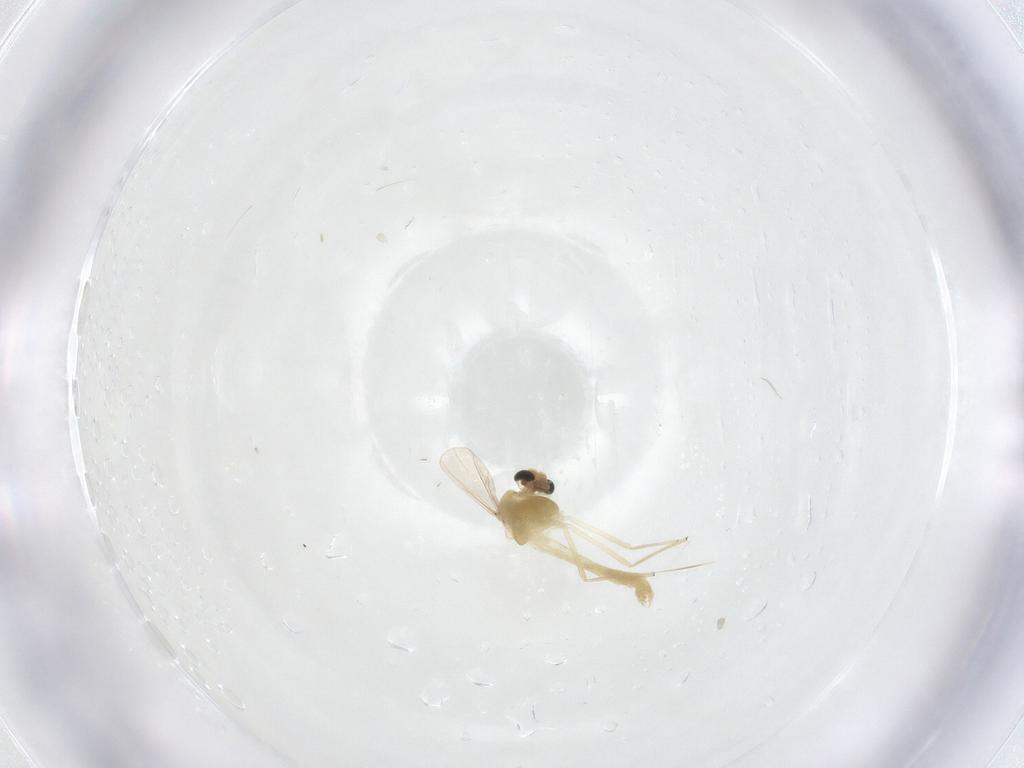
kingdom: Animalia
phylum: Arthropoda
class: Insecta
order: Diptera
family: Chironomidae
